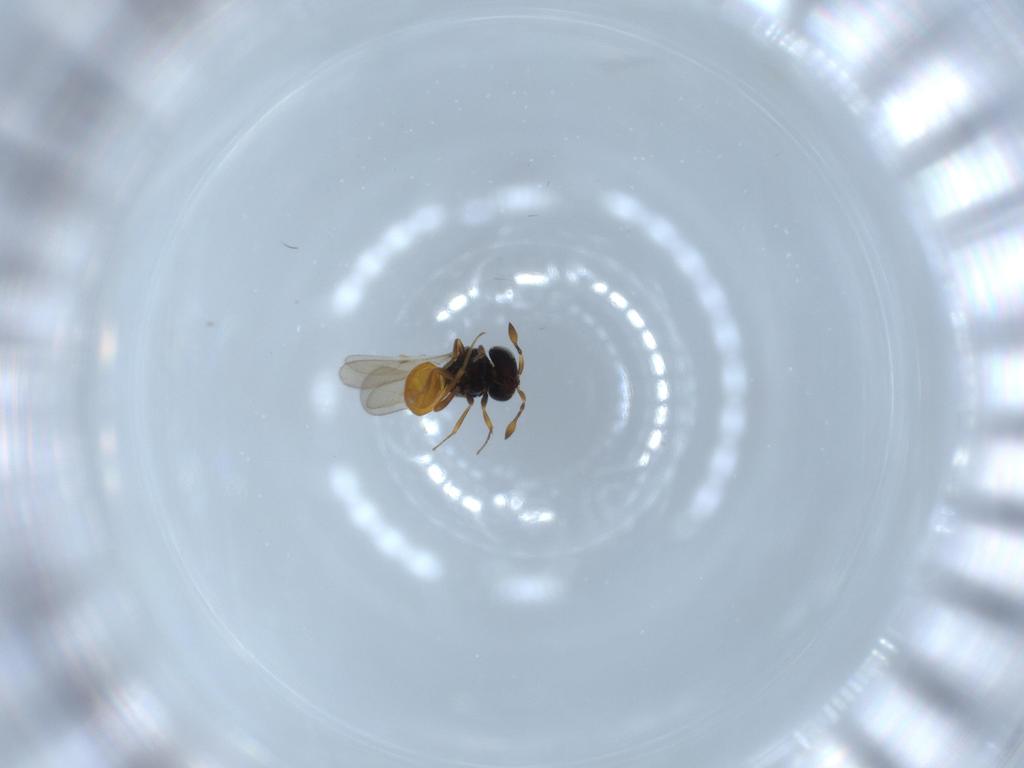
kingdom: Animalia
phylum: Arthropoda
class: Insecta
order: Hymenoptera
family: Scelionidae
